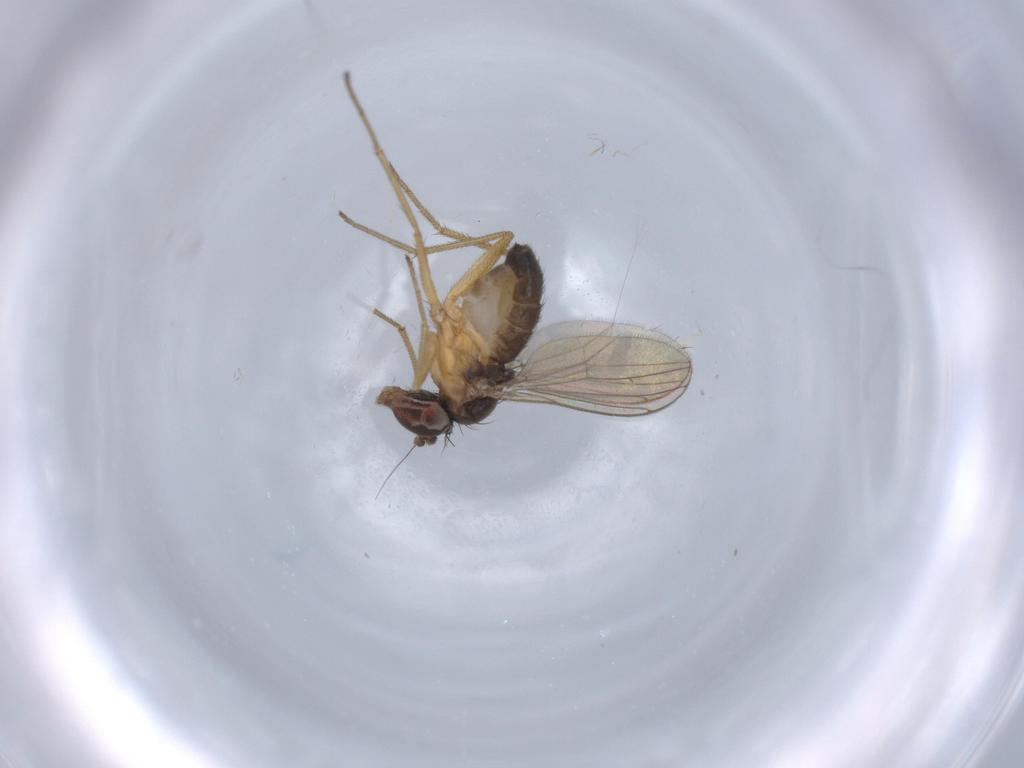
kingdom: Animalia
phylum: Arthropoda
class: Insecta
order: Diptera
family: Dolichopodidae
